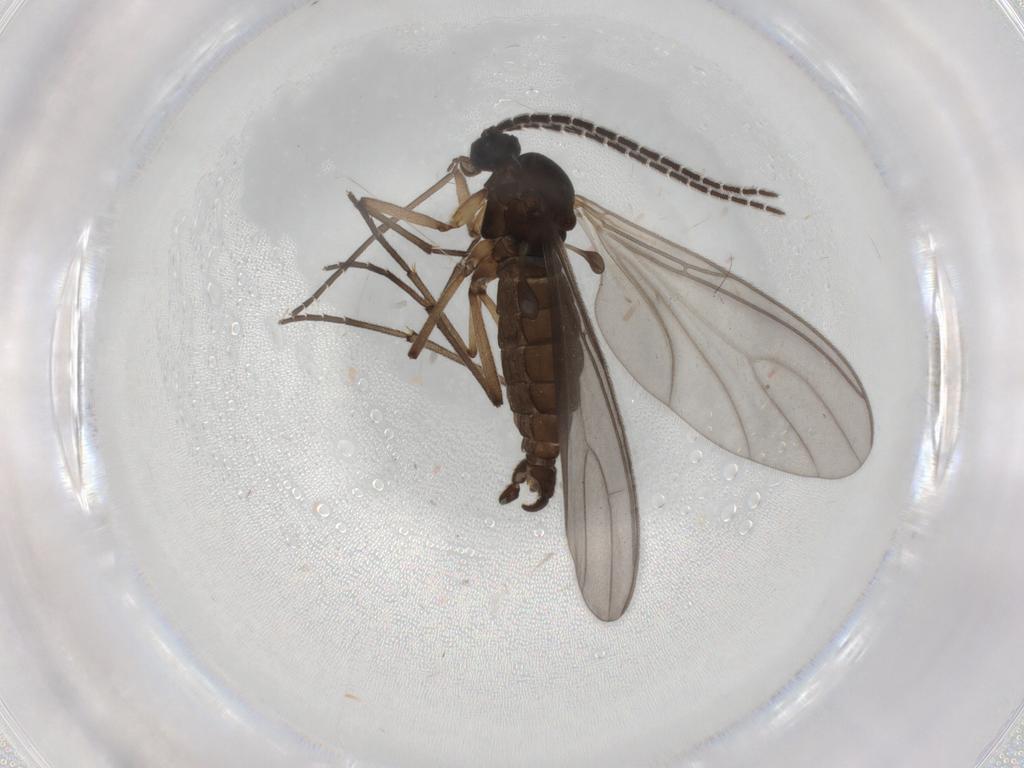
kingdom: Animalia
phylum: Arthropoda
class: Insecta
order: Diptera
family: Sciaridae
